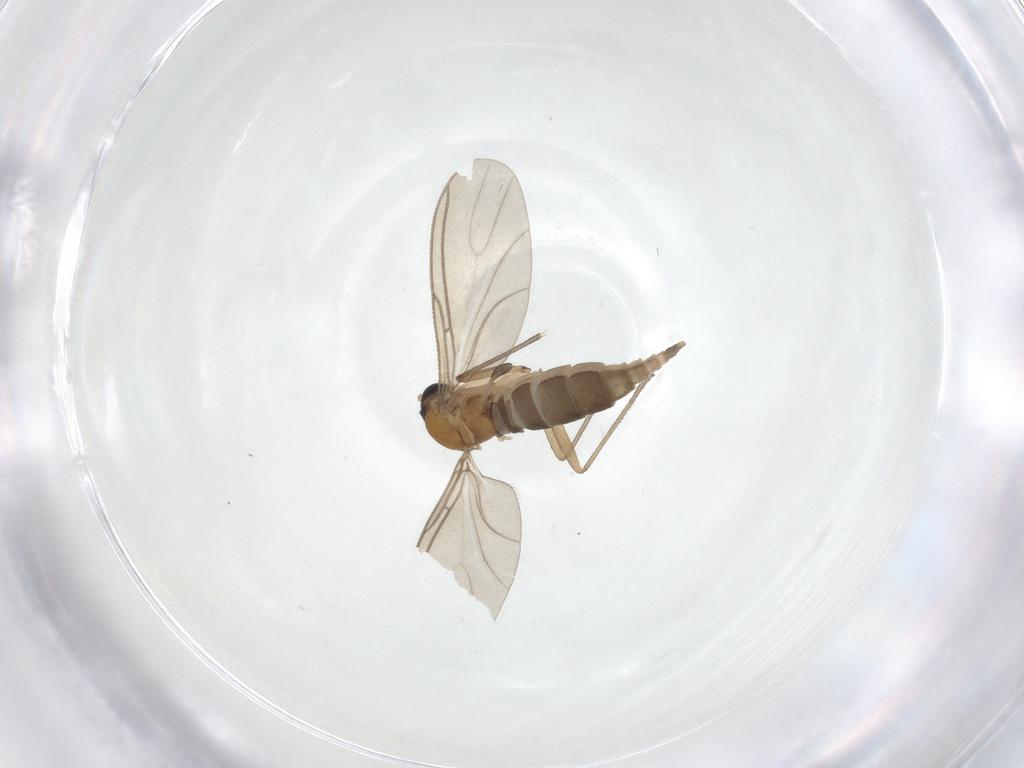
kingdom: Animalia
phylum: Arthropoda
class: Insecta
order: Diptera
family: Sciaridae
